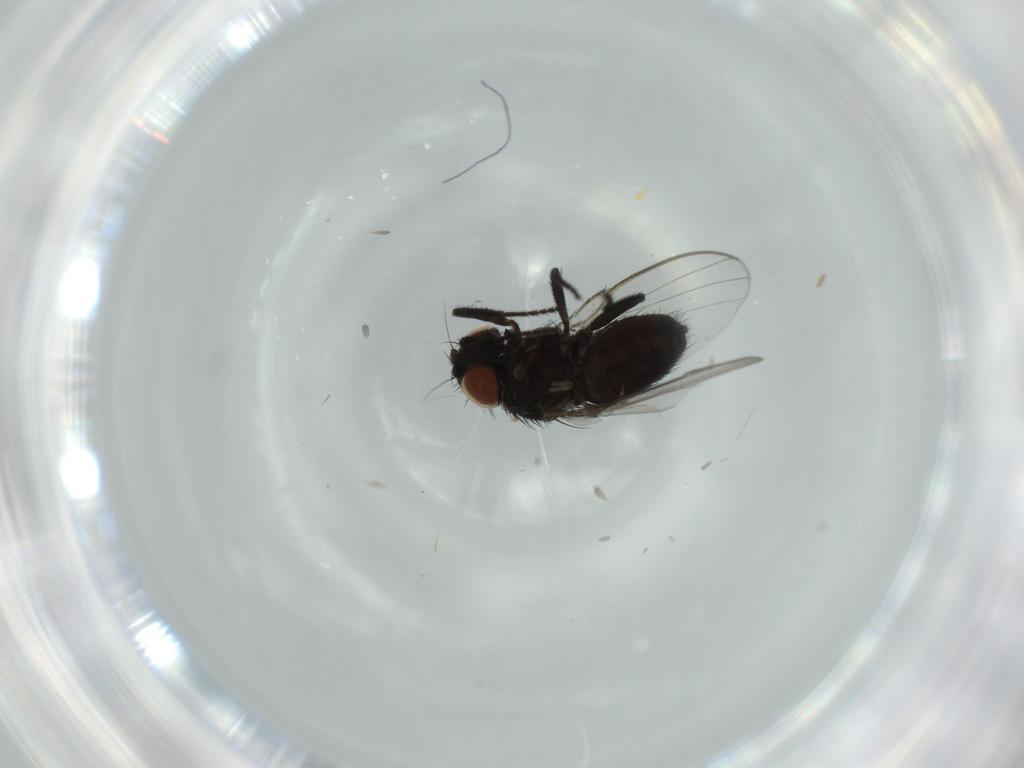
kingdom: Animalia
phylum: Arthropoda
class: Insecta
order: Diptera
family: Milichiidae
